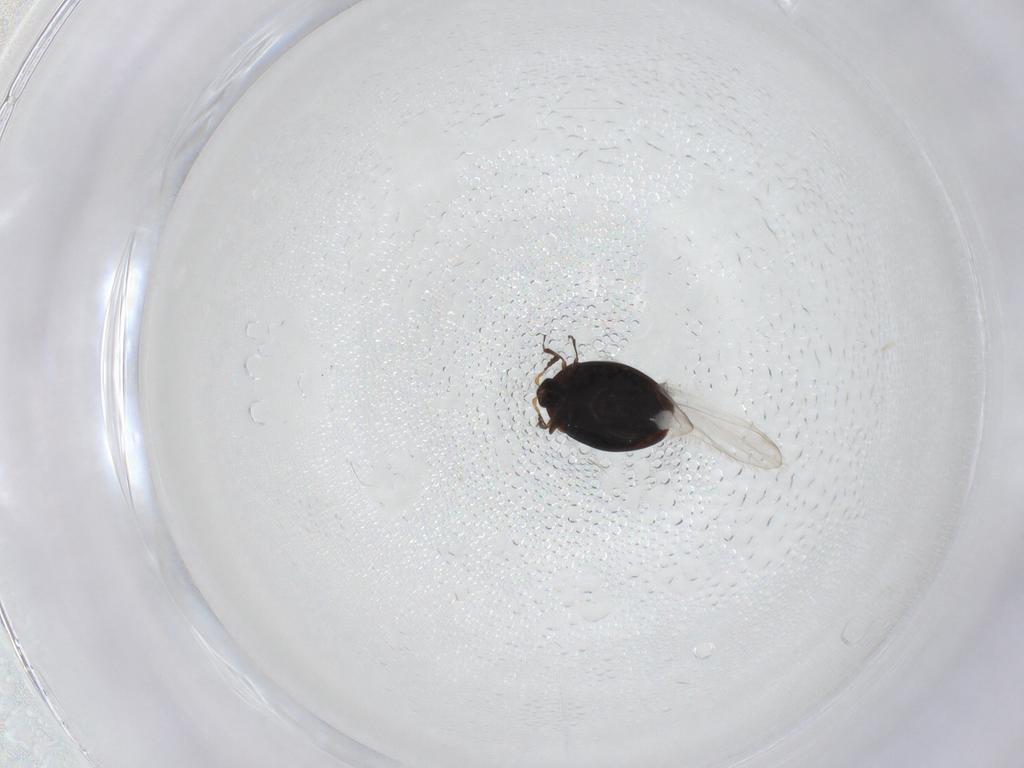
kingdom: Animalia
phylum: Arthropoda
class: Insecta
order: Coleoptera
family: Corylophidae
